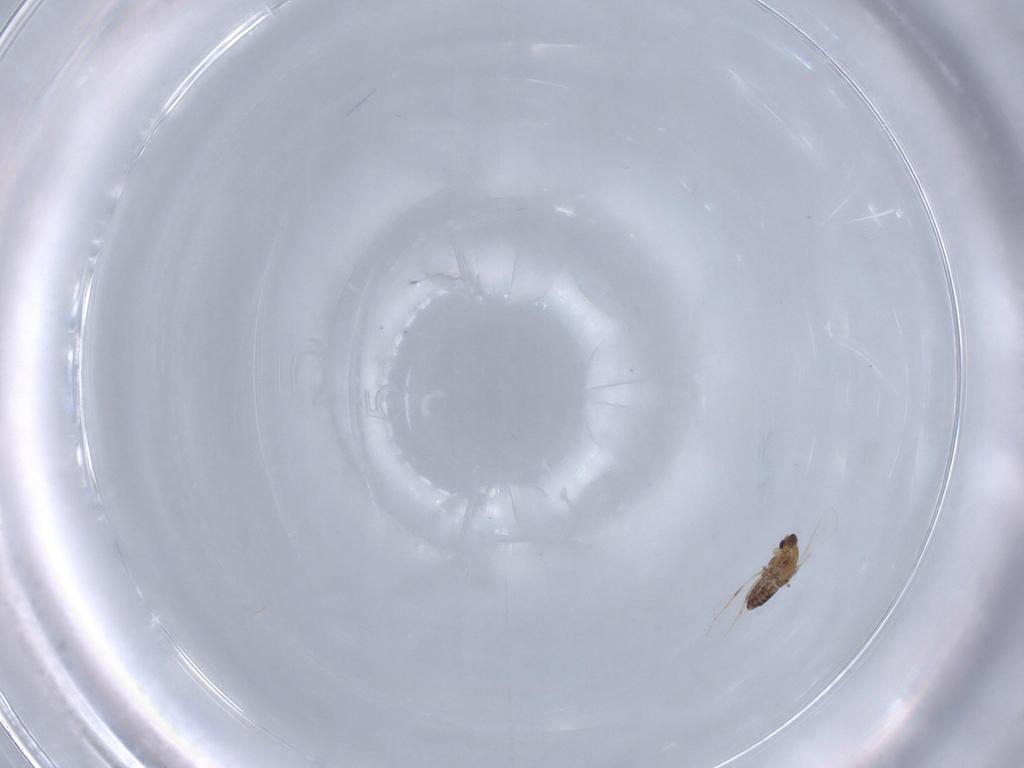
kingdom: Animalia
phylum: Arthropoda
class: Insecta
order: Diptera
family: Chironomidae
